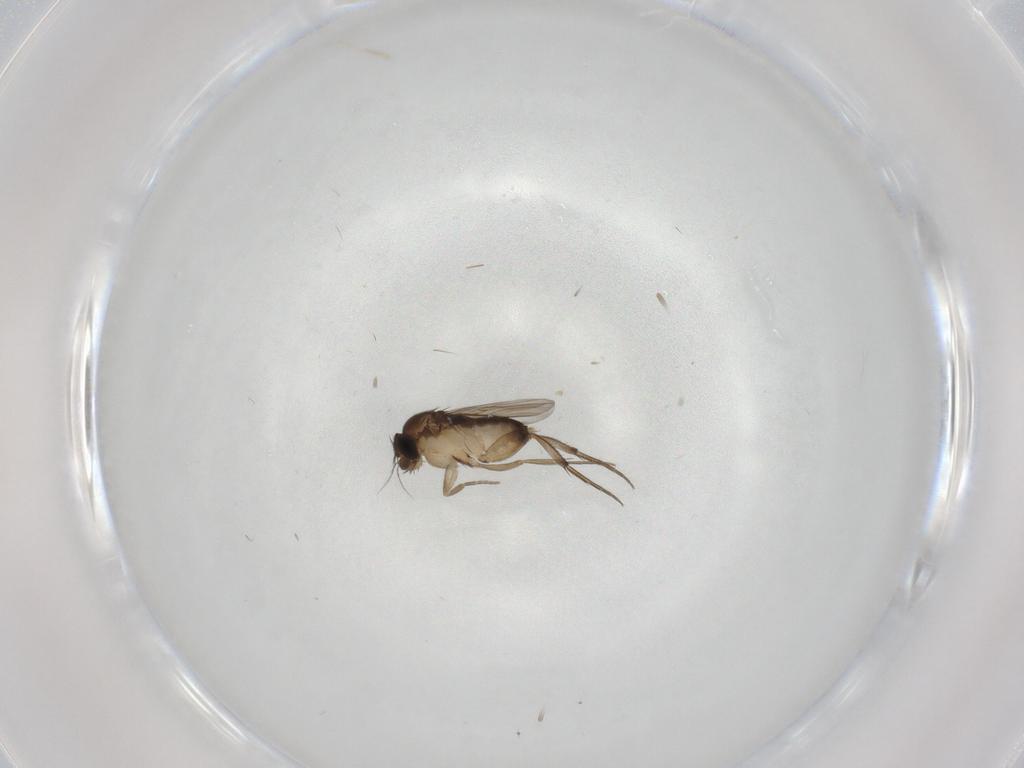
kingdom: Animalia
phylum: Arthropoda
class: Insecta
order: Diptera
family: Phoridae
